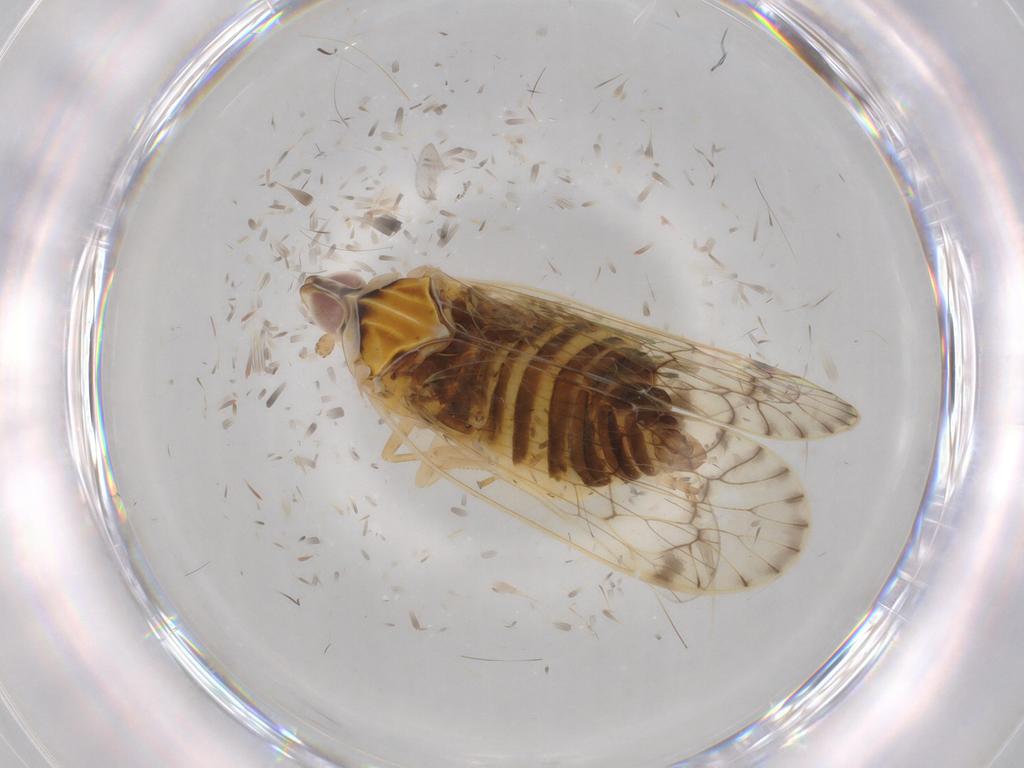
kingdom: Animalia
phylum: Arthropoda
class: Insecta
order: Hemiptera
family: Kinnaridae
